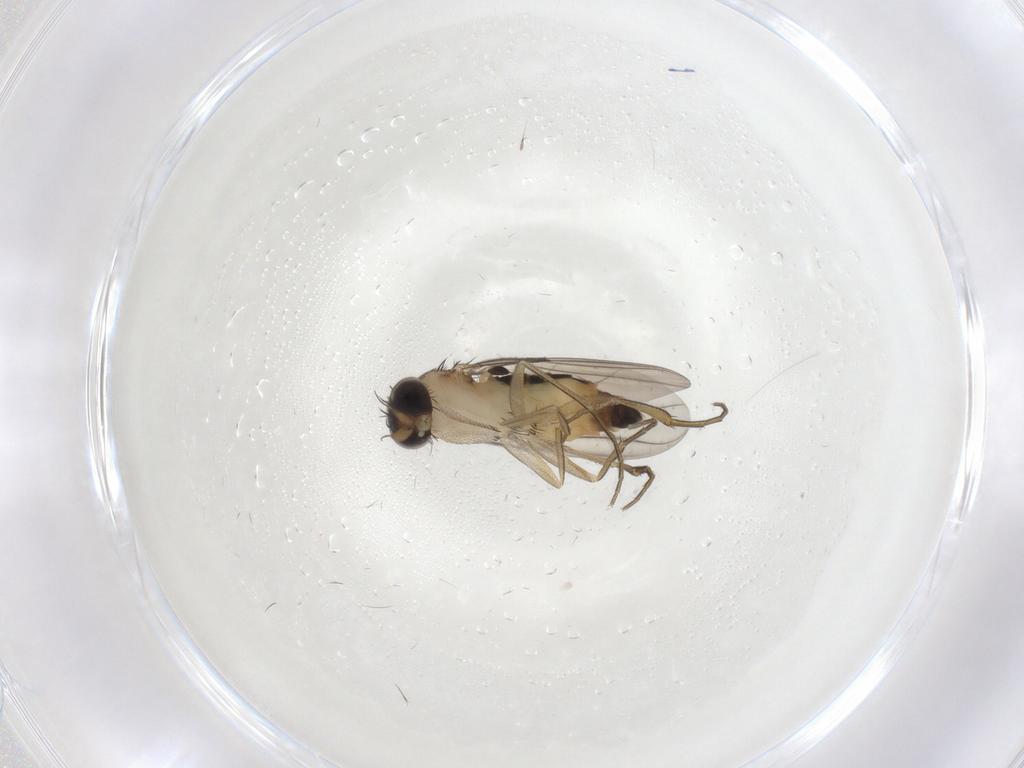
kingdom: Animalia
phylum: Arthropoda
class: Insecta
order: Diptera
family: Phoridae
